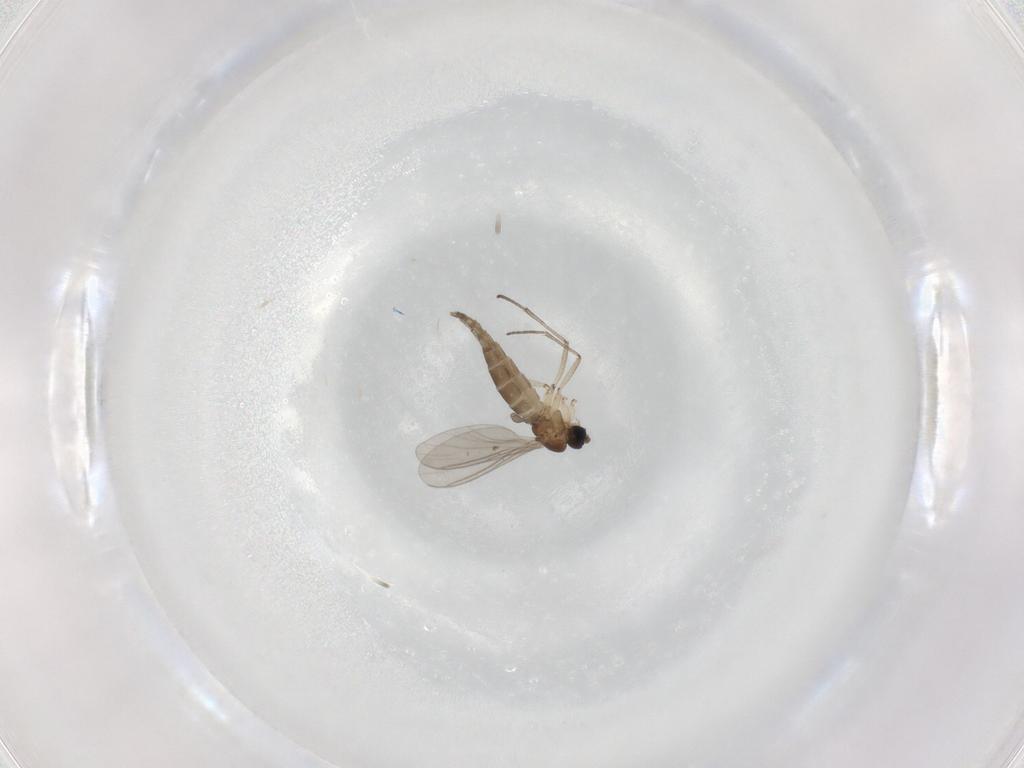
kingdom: Animalia
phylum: Arthropoda
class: Insecta
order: Diptera
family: Sciaridae
